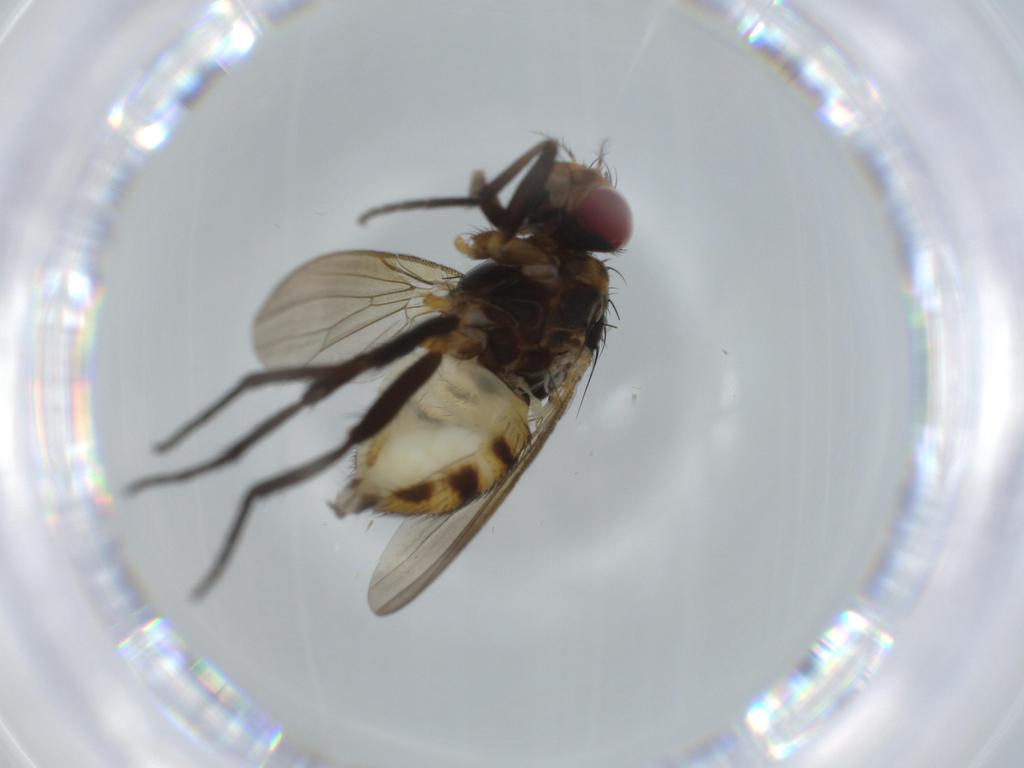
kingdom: Animalia
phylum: Arthropoda
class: Insecta
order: Diptera
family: Anthomyiidae
